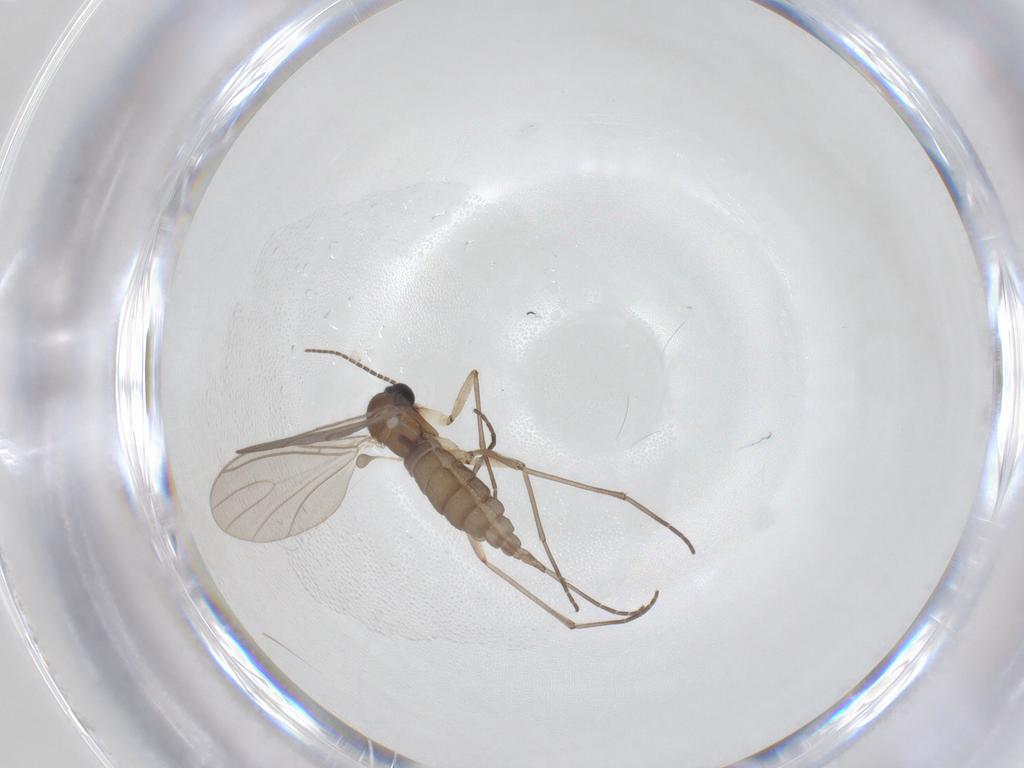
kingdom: Animalia
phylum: Arthropoda
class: Insecta
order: Diptera
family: Sciaridae
